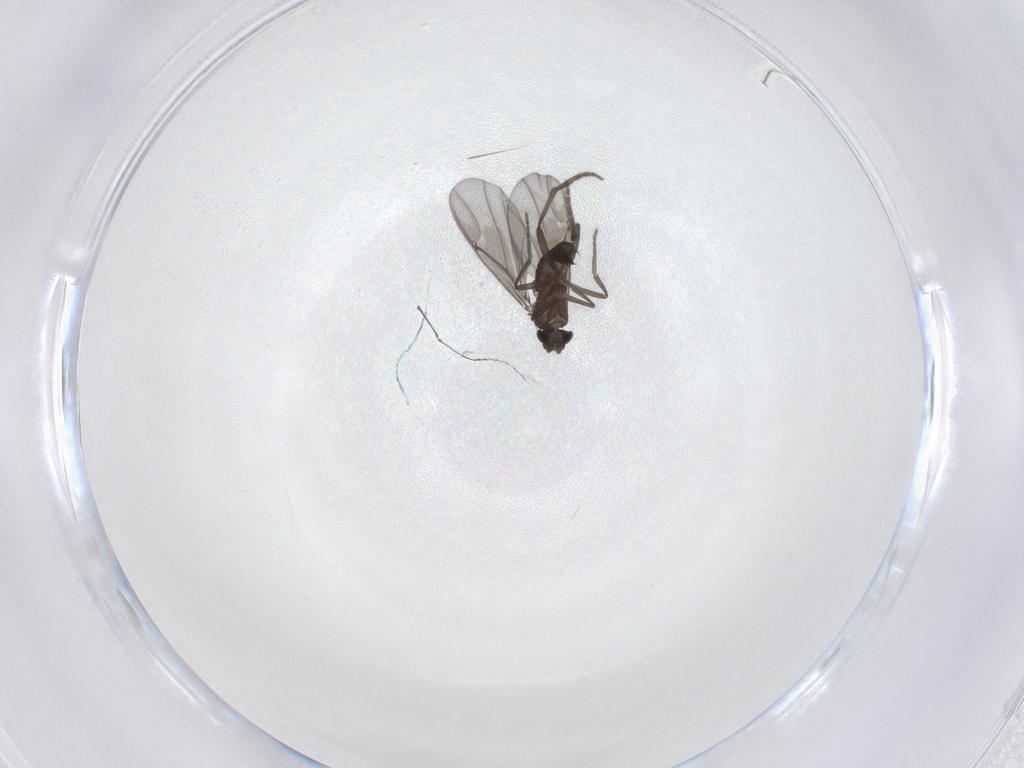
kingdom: Animalia
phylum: Arthropoda
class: Insecta
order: Diptera
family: Phoridae
